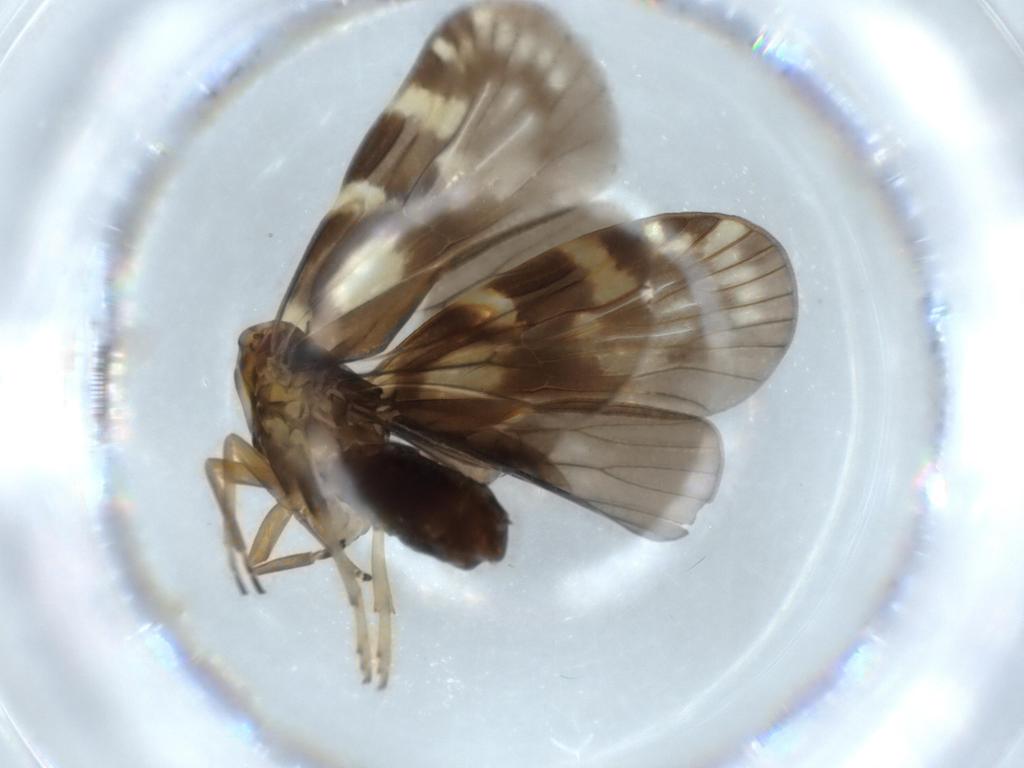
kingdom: Animalia
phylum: Arthropoda
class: Insecta
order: Hemiptera
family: Cixiidae
